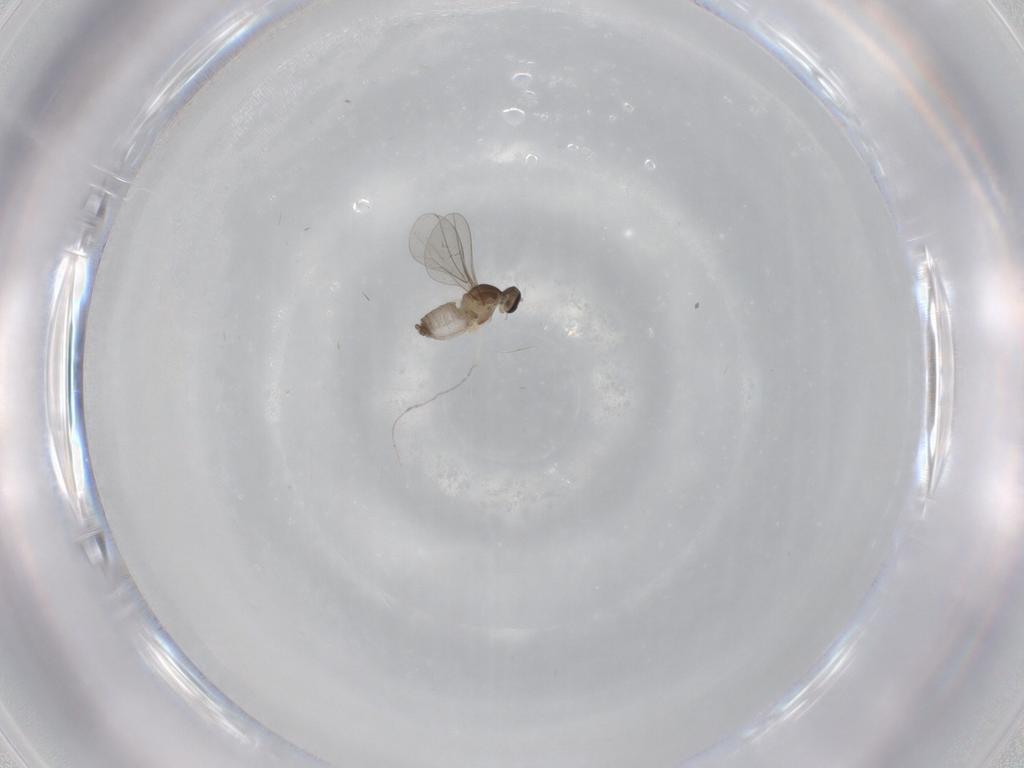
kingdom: Animalia
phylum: Arthropoda
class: Insecta
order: Diptera
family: Cecidomyiidae
